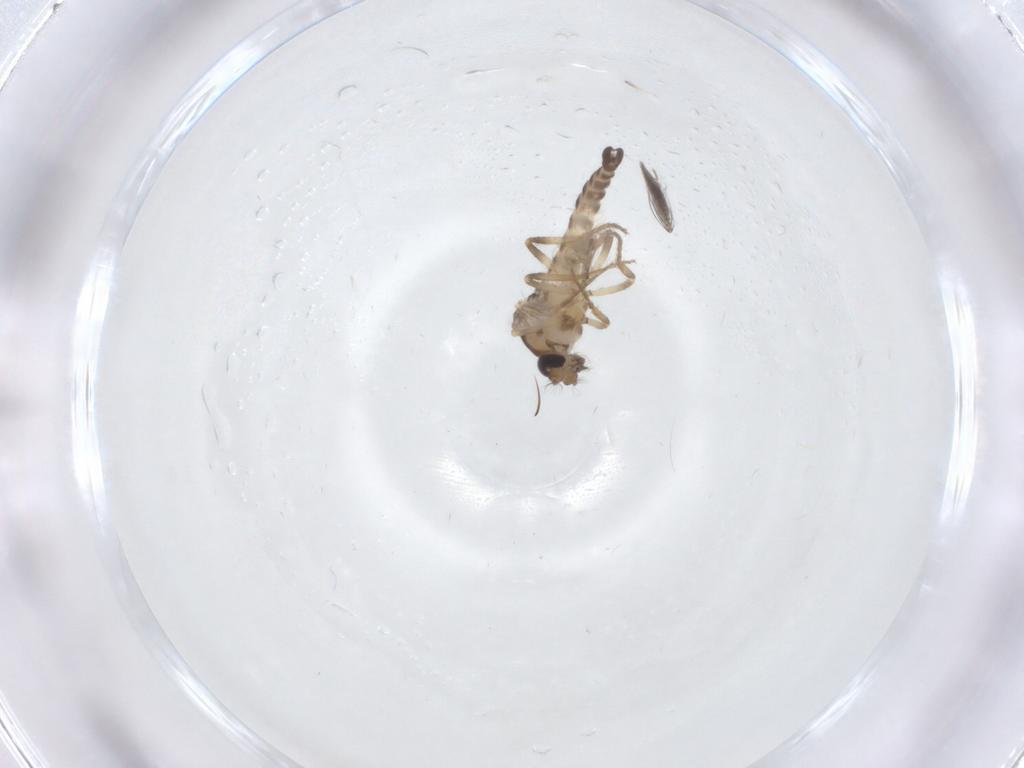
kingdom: Animalia
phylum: Arthropoda
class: Insecta
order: Diptera
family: Ceratopogonidae
